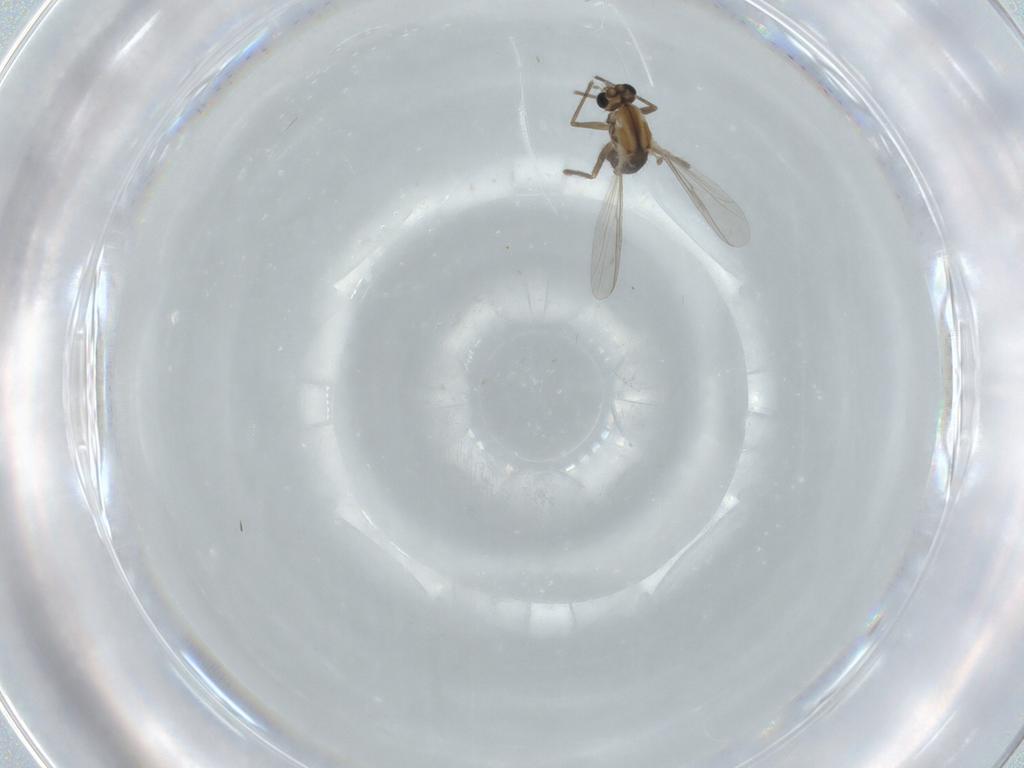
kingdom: Animalia
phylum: Arthropoda
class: Insecta
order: Diptera
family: Chironomidae
